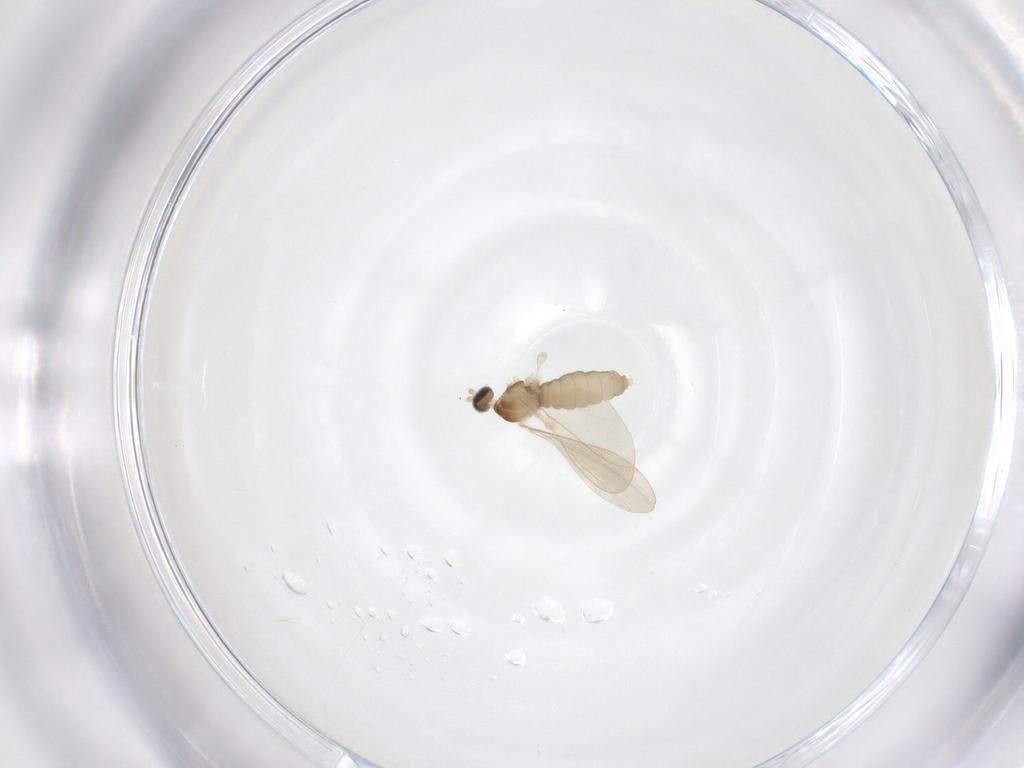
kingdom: Animalia
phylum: Arthropoda
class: Insecta
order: Diptera
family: Cecidomyiidae
